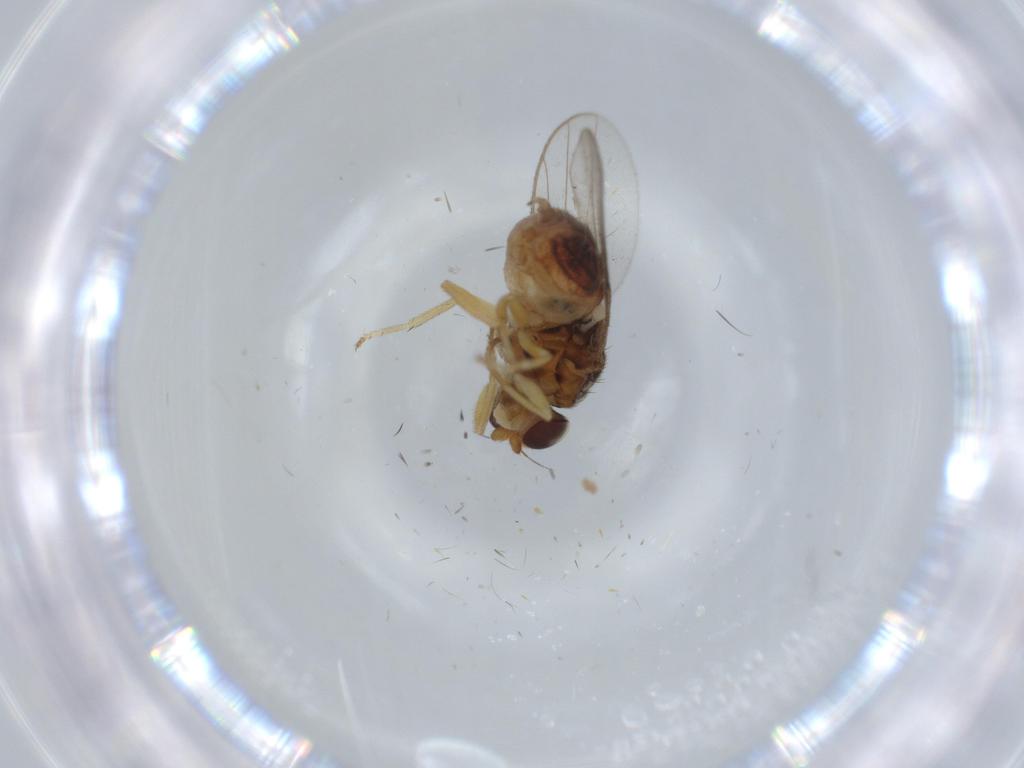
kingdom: Animalia
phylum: Arthropoda
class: Insecta
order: Diptera
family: Chloropidae
